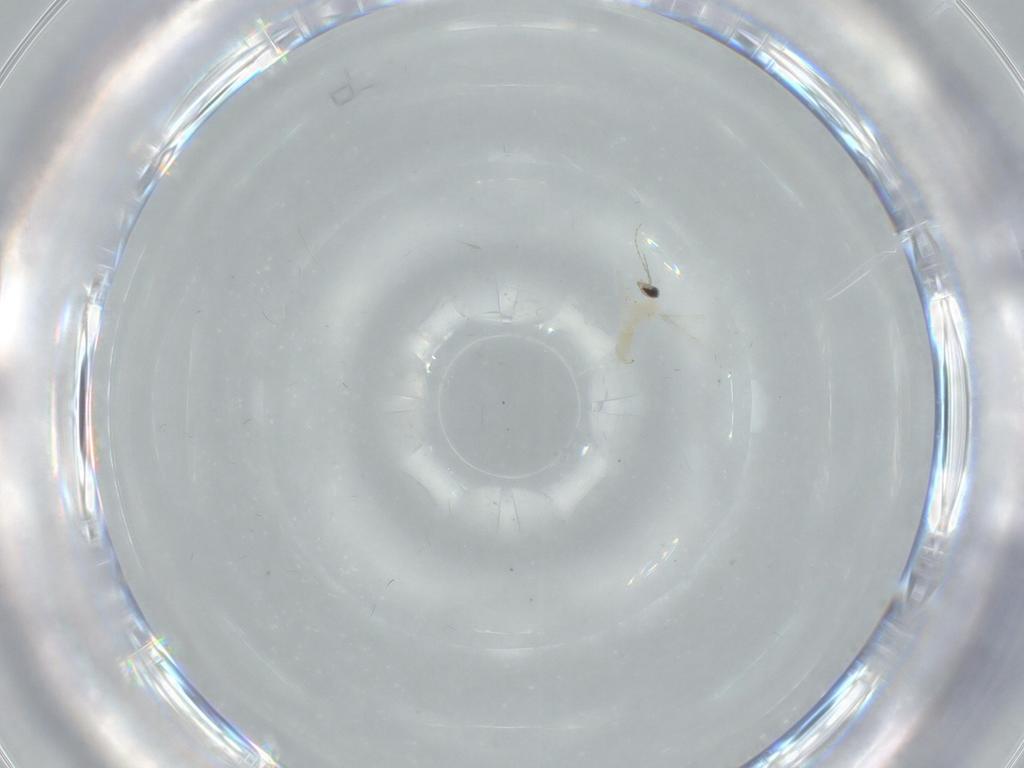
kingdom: Animalia
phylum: Arthropoda
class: Insecta
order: Diptera
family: Cecidomyiidae
